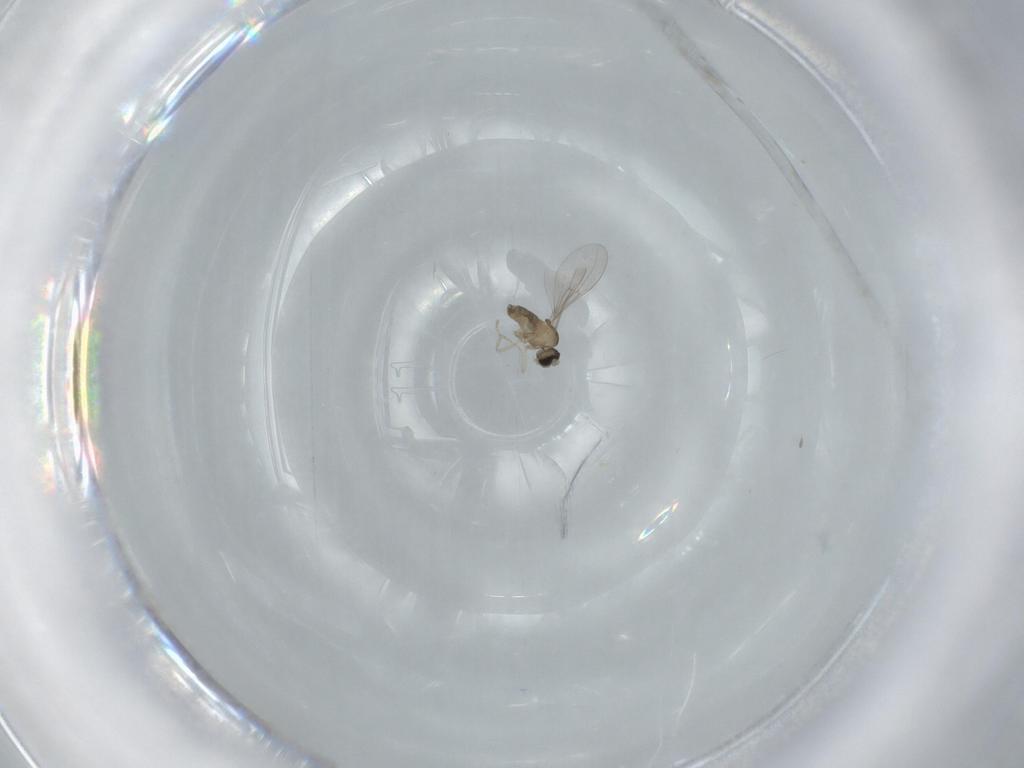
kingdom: Animalia
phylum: Arthropoda
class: Insecta
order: Diptera
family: Cecidomyiidae
